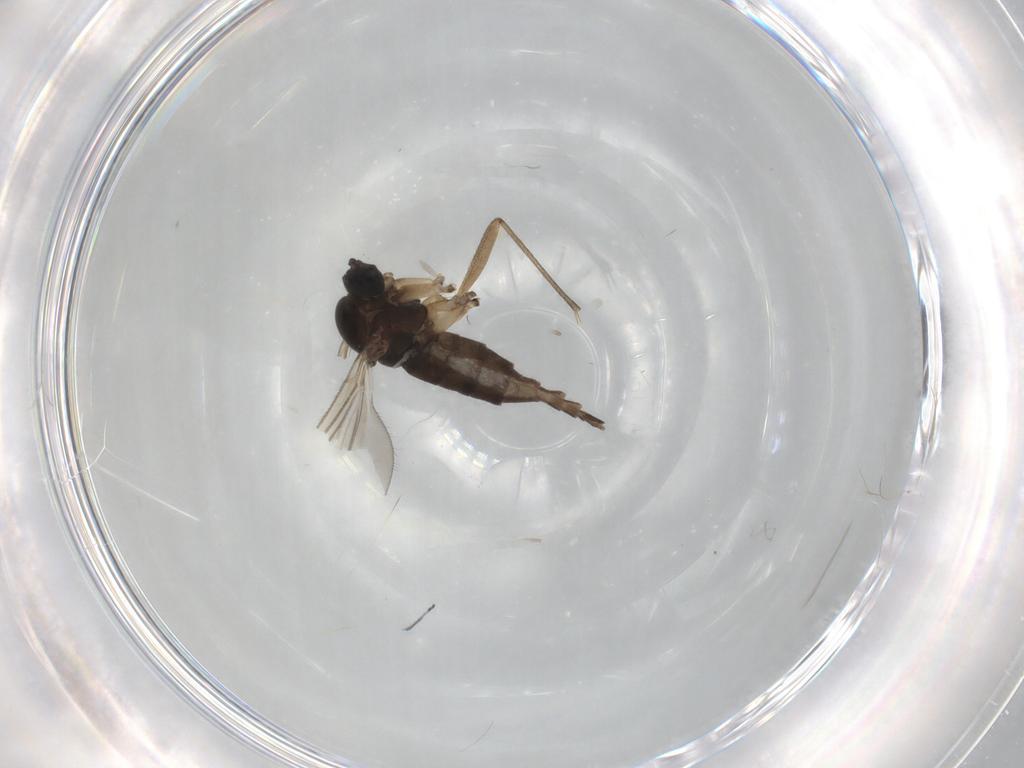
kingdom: Animalia
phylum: Arthropoda
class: Insecta
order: Diptera
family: Sciaridae
